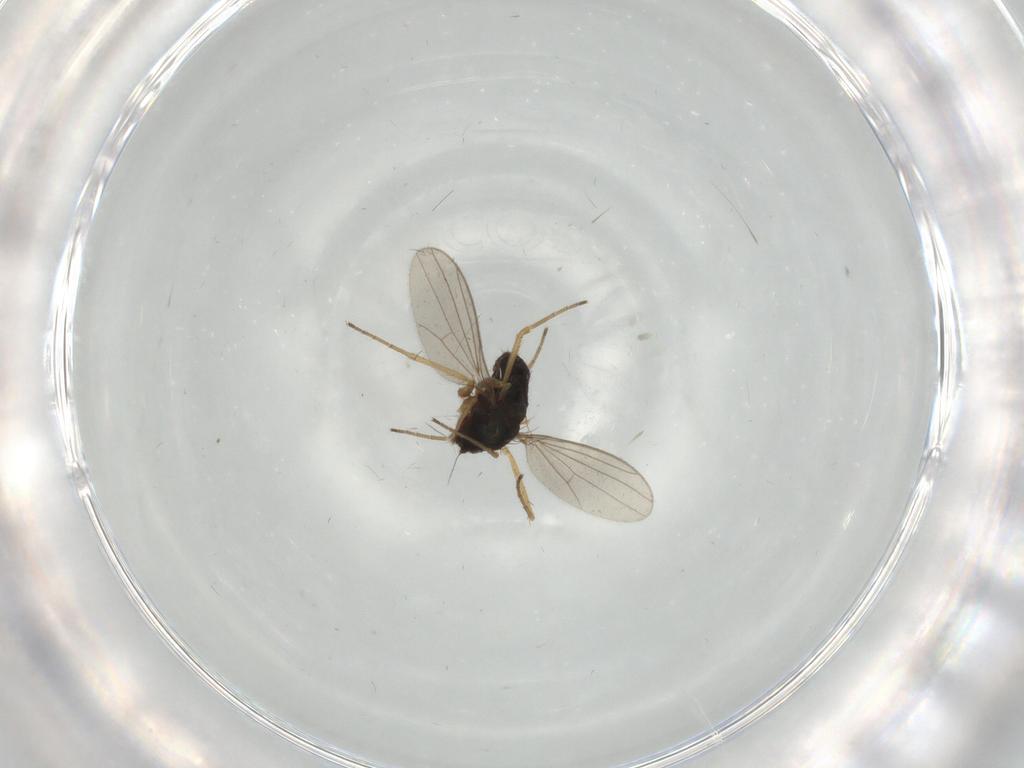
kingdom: Animalia
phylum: Arthropoda
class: Insecta
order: Diptera
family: Dolichopodidae
